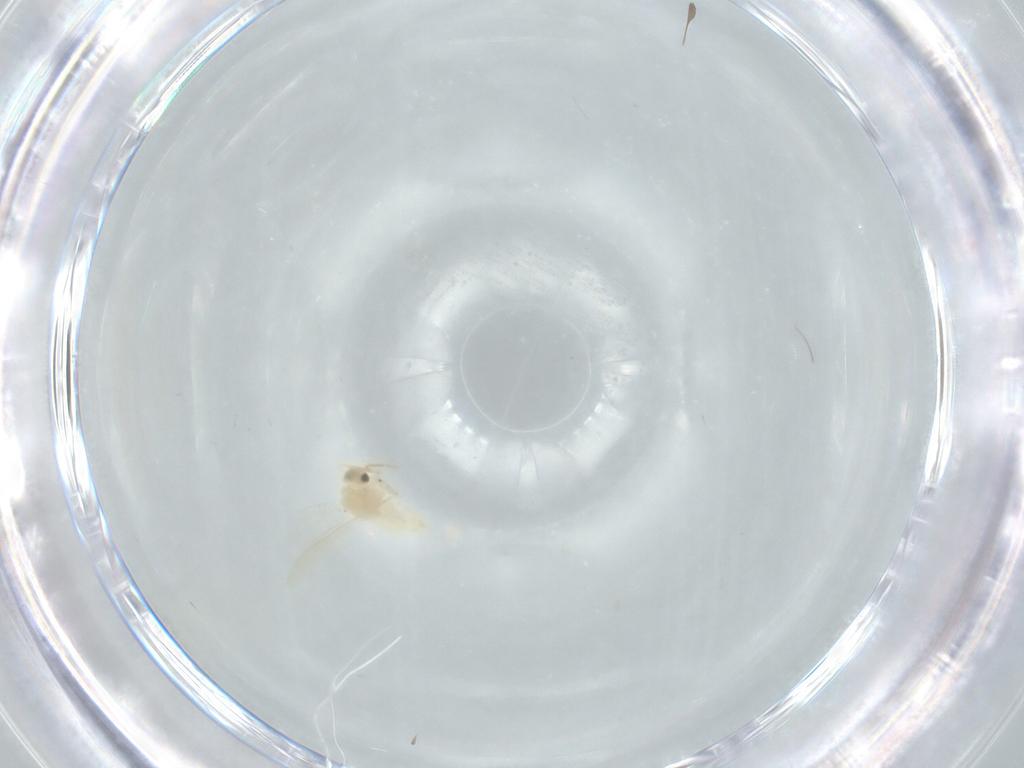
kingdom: Animalia
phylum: Arthropoda
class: Insecta
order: Hemiptera
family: Aleyrodidae
